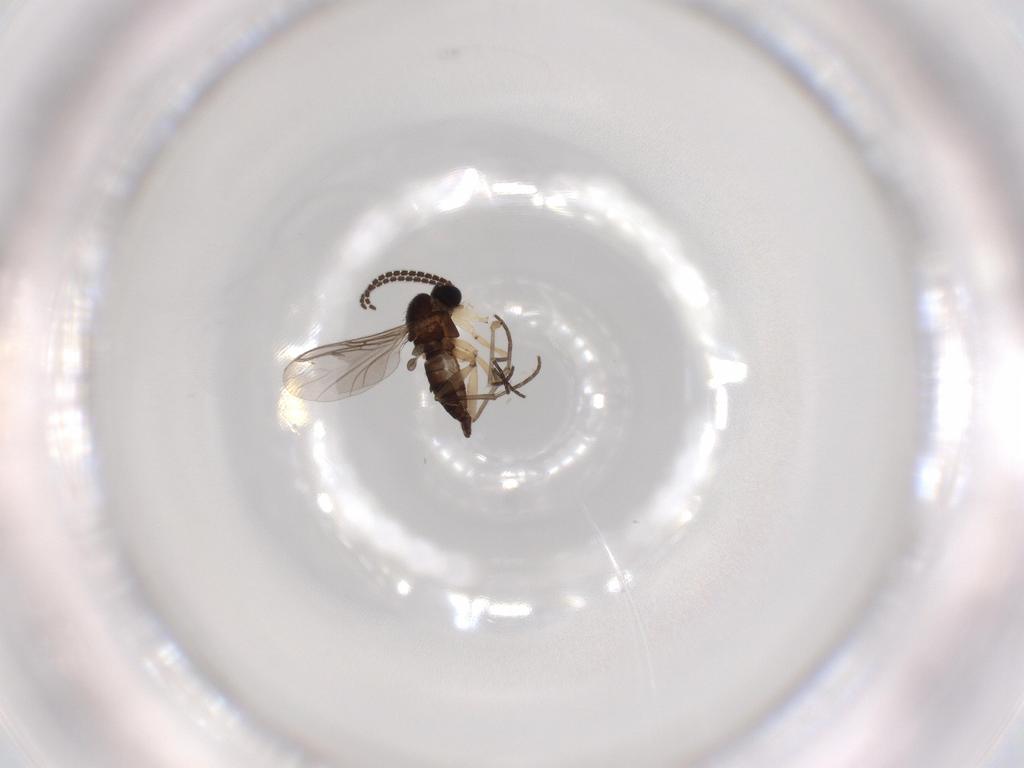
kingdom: Animalia
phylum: Arthropoda
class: Insecta
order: Diptera
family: Sciaridae
